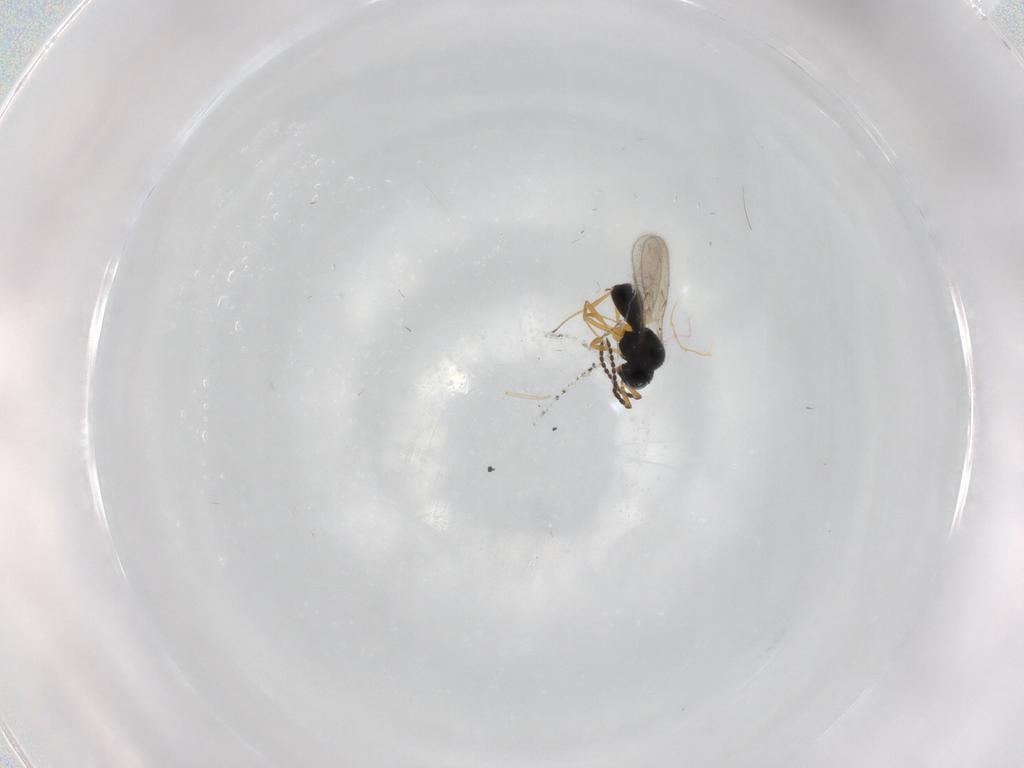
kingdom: Animalia
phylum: Arthropoda
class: Insecta
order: Hymenoptera
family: Scelionidae
